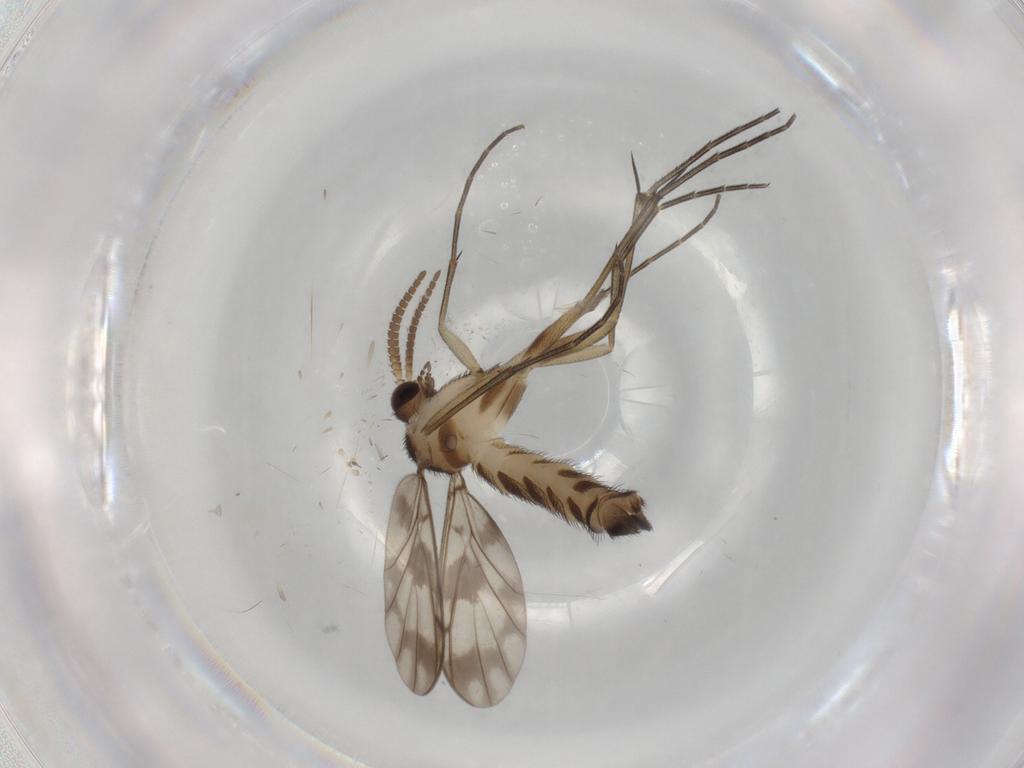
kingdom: Animalia
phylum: Arthropoda
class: Insecta
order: Diptera
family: Keroplatidae
